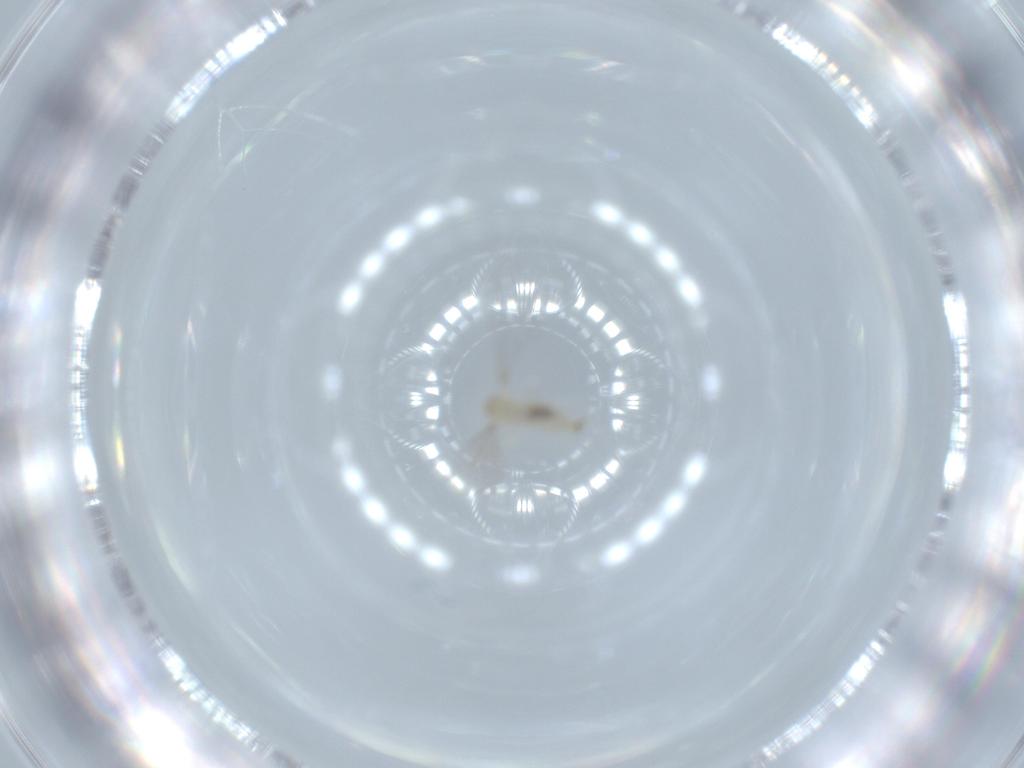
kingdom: Animalia
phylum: Arthropoda
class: Insecta
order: Diptera
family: Cecidomyiidae
